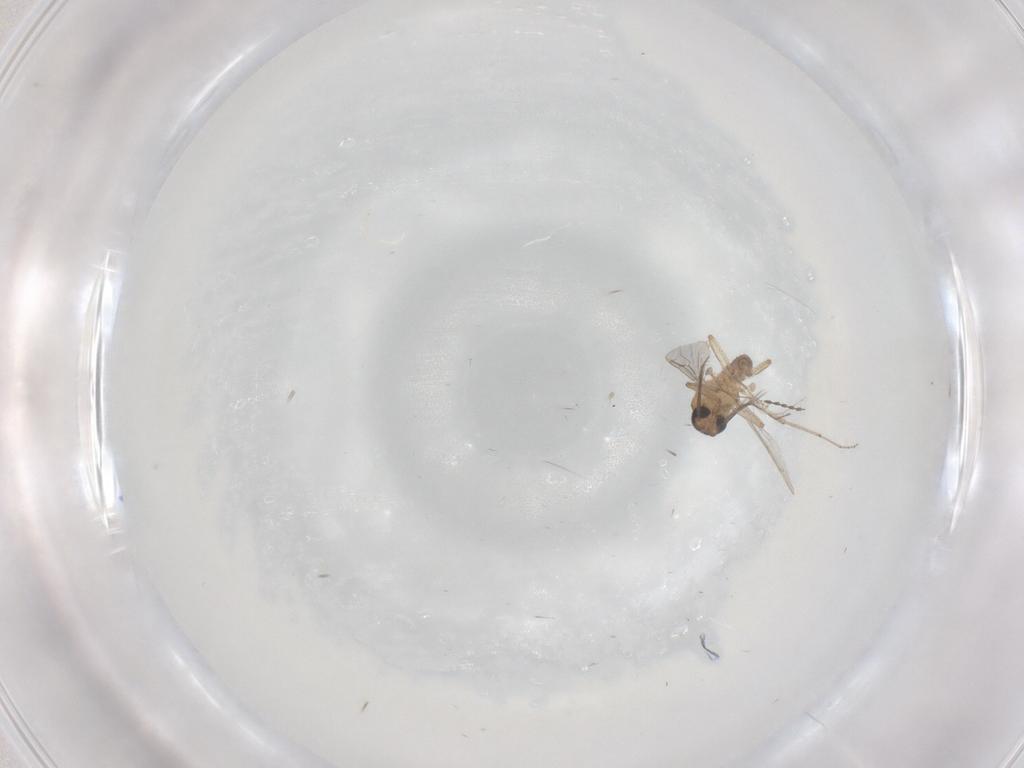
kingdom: Animalia
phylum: Arthropoda
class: Insecta
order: Diptera
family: Cecidomyiidae
